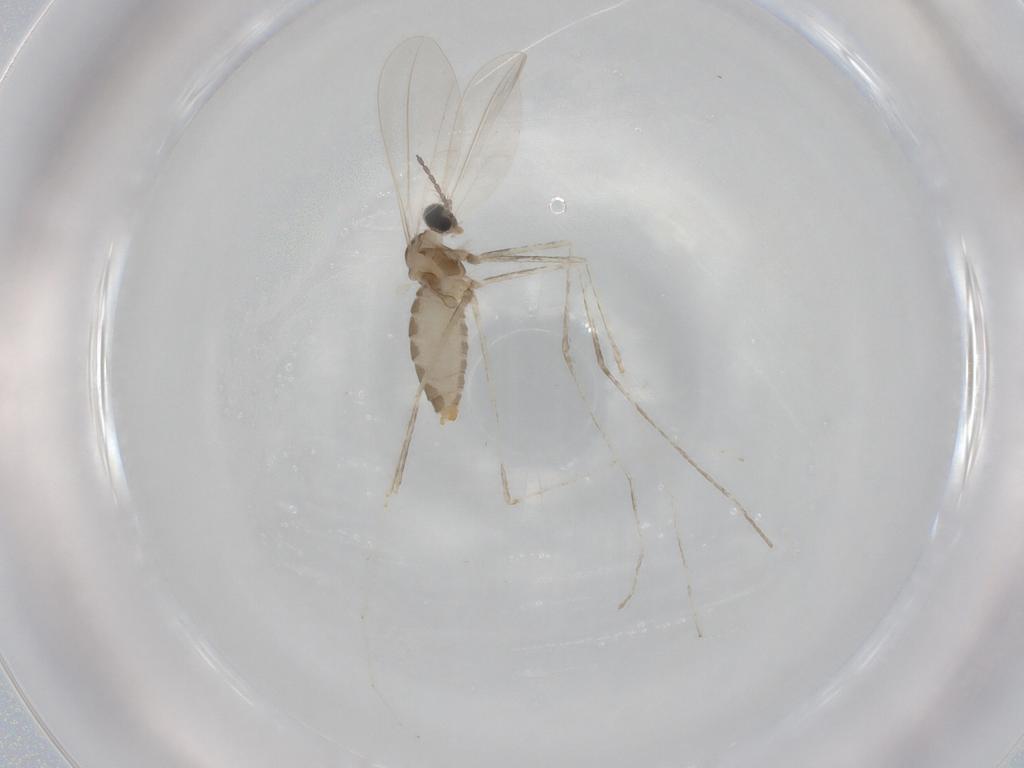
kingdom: Animalia
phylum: Arthropoda
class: Insecta
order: Diptera
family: Cecidomyiidae
